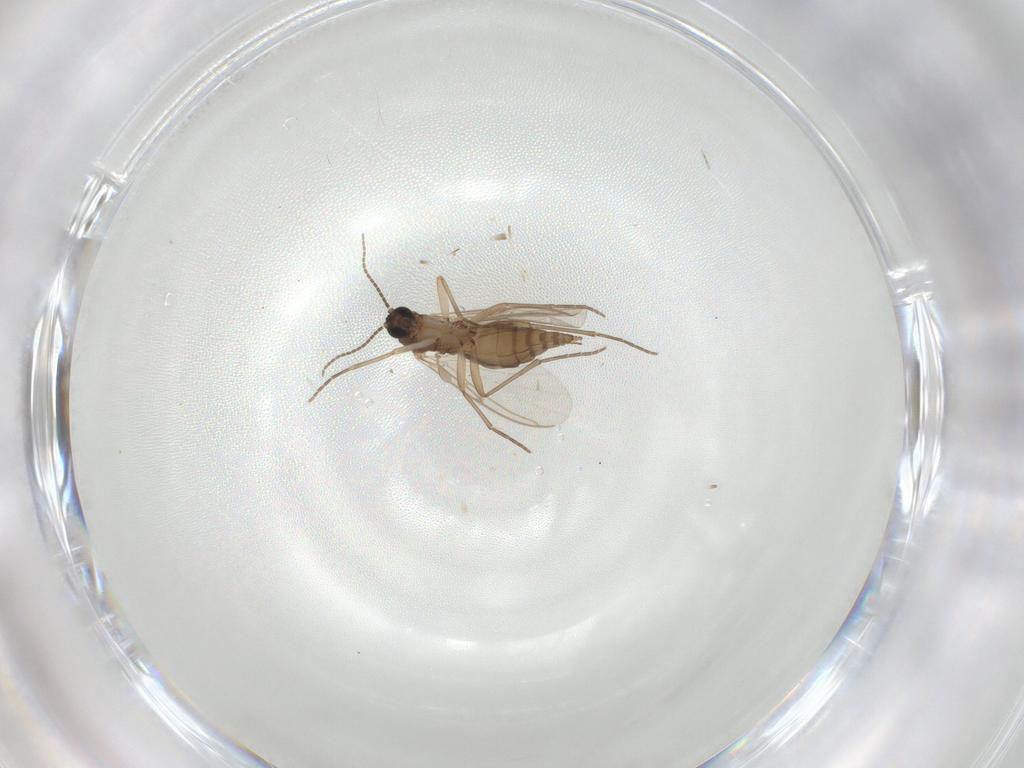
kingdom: Animalia
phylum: Arthropoda
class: Insecta
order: Diptera
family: Sciaridae
